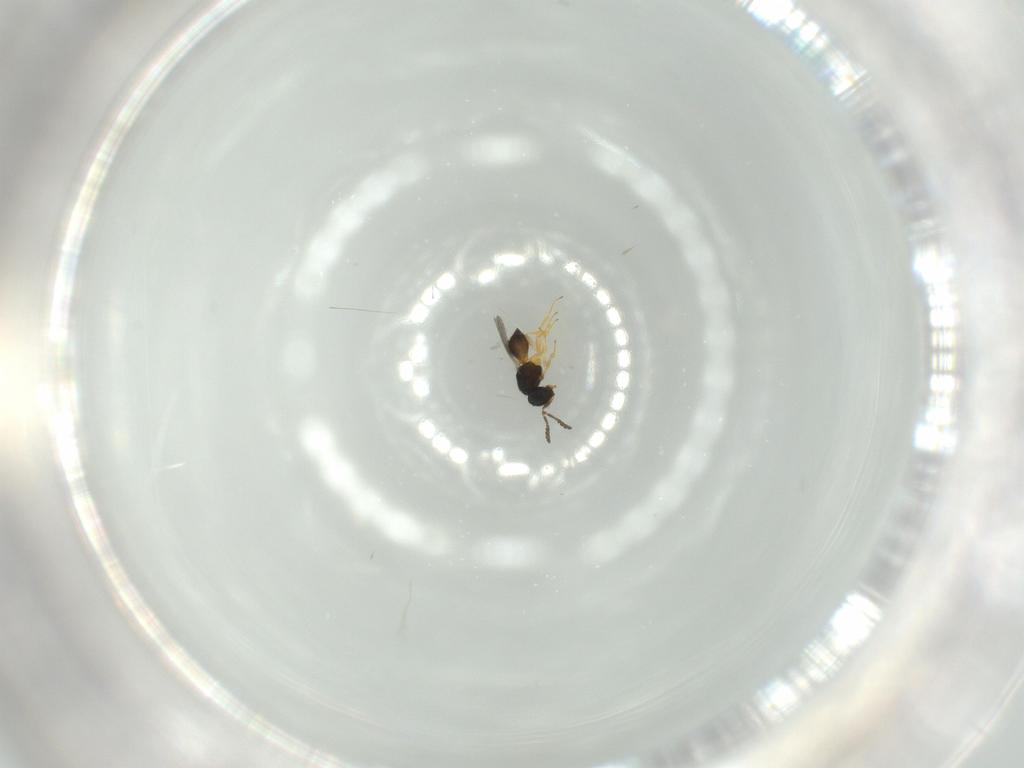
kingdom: Animalia
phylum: Arthropoda
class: Insecta
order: Hymenoptera
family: Scelionidae
